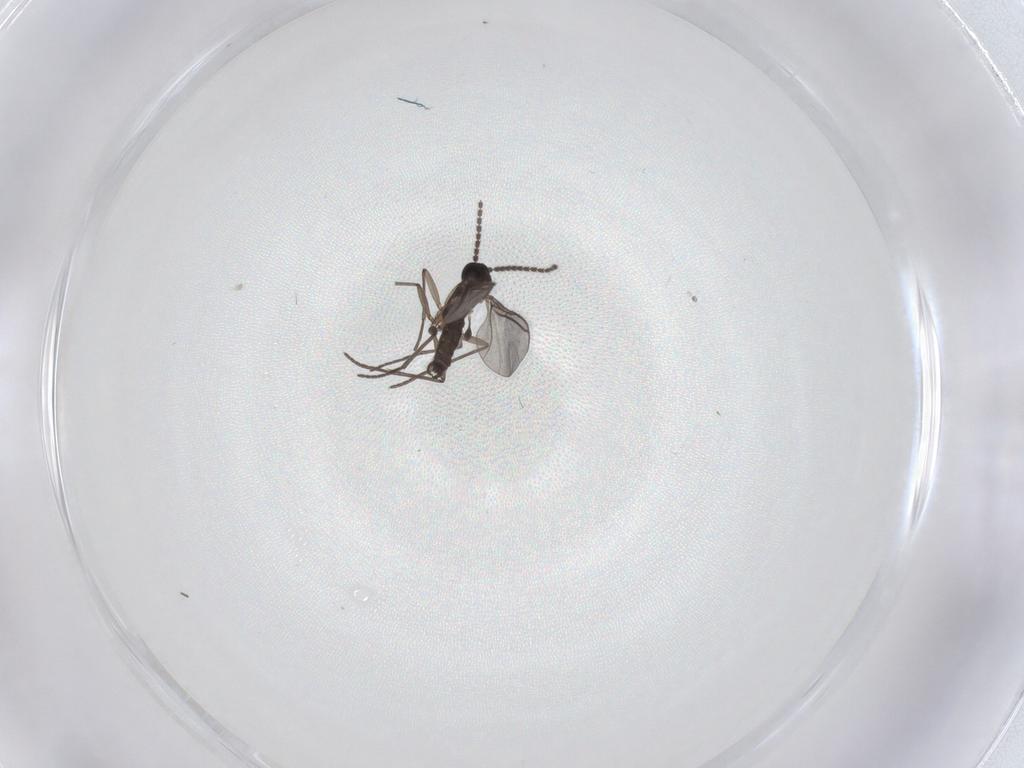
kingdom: Animalia
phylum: Arthropoda
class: Insecta
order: Diptera
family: Sciaridae
